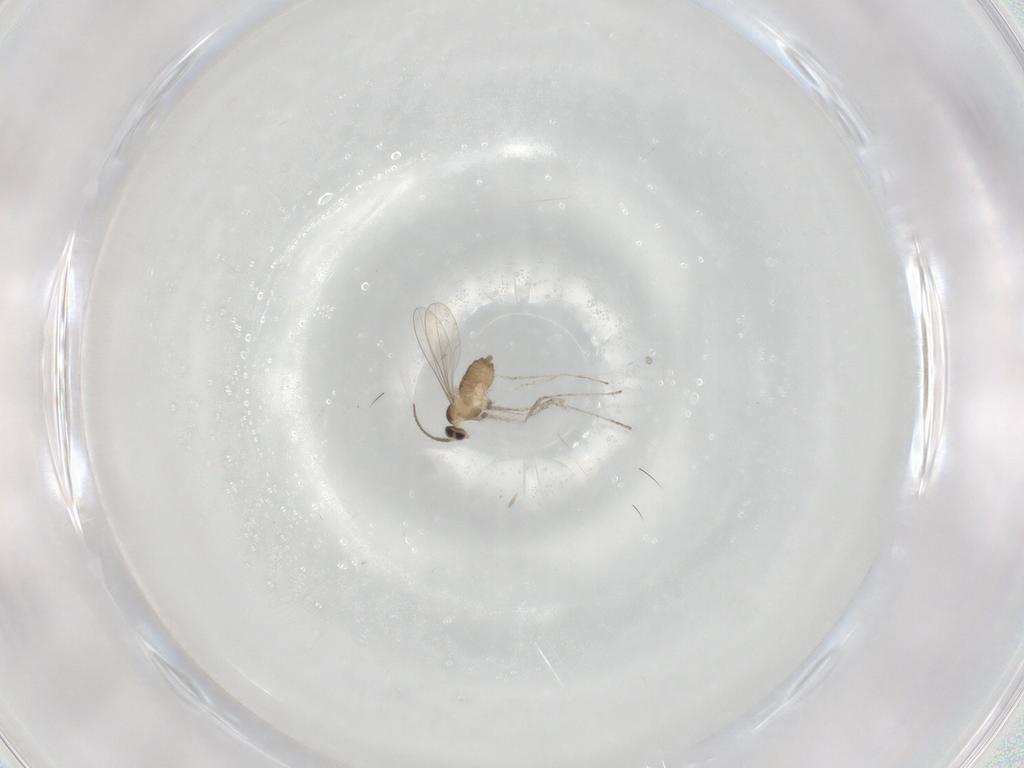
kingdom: Animalia
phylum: Arthropoda
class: Insecta
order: Diptera
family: Cecidomyiidae
